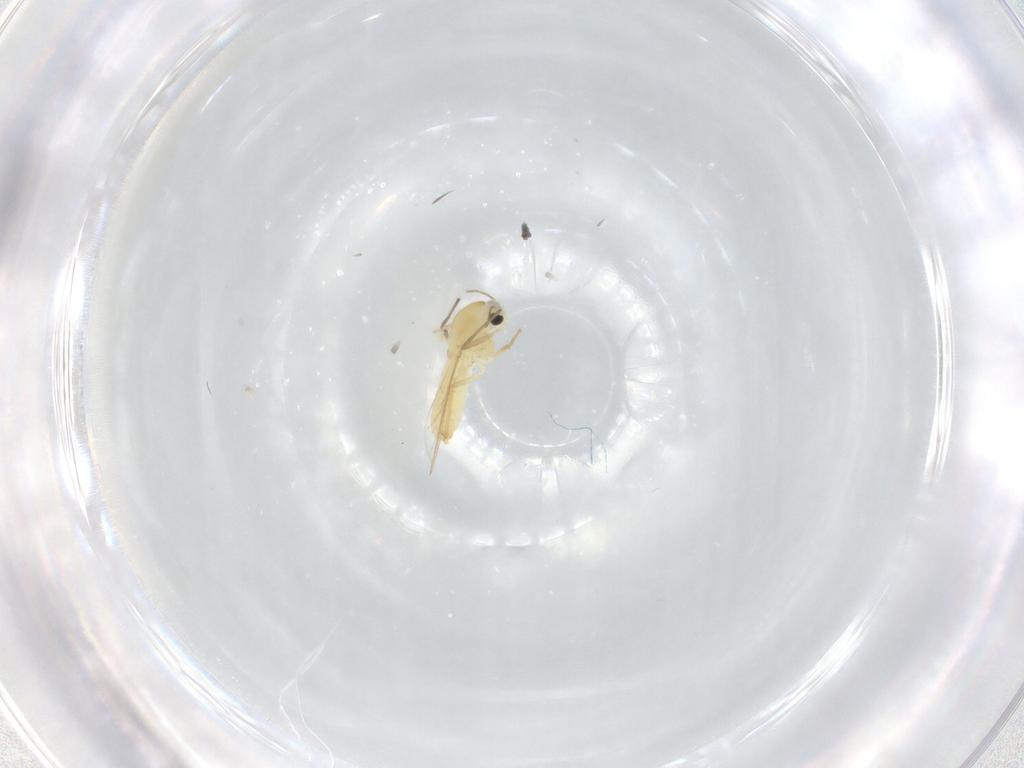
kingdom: Animalia
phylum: Arthropoda
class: Insecta
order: Diptera
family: Chironomidae
